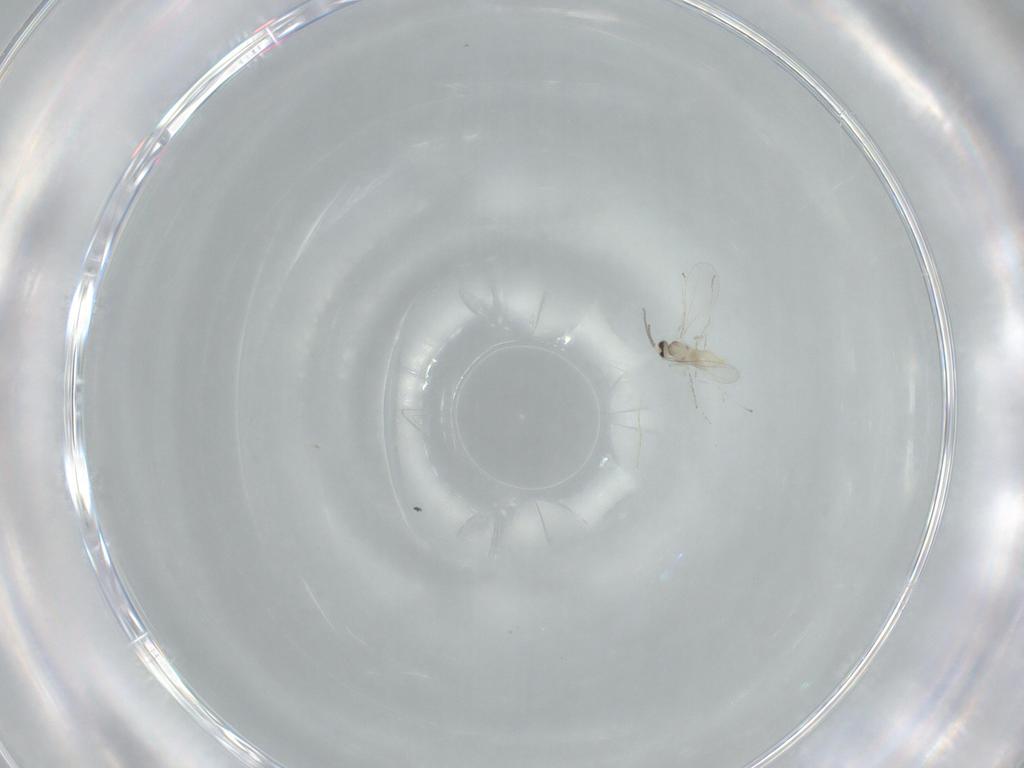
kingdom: Animalia
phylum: Arthropoda
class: Insecta
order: Diptera
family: Cecidomyiidae
